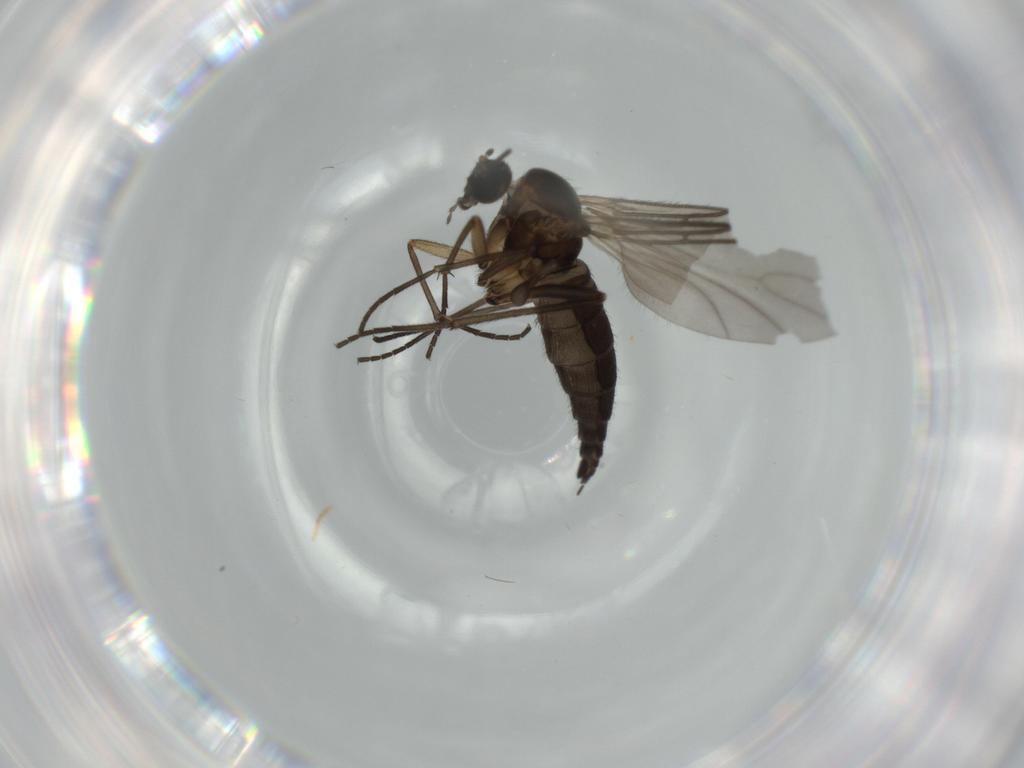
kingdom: Animalia
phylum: Arthropoda
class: Insecta
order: Diptera
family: Sciaridae
